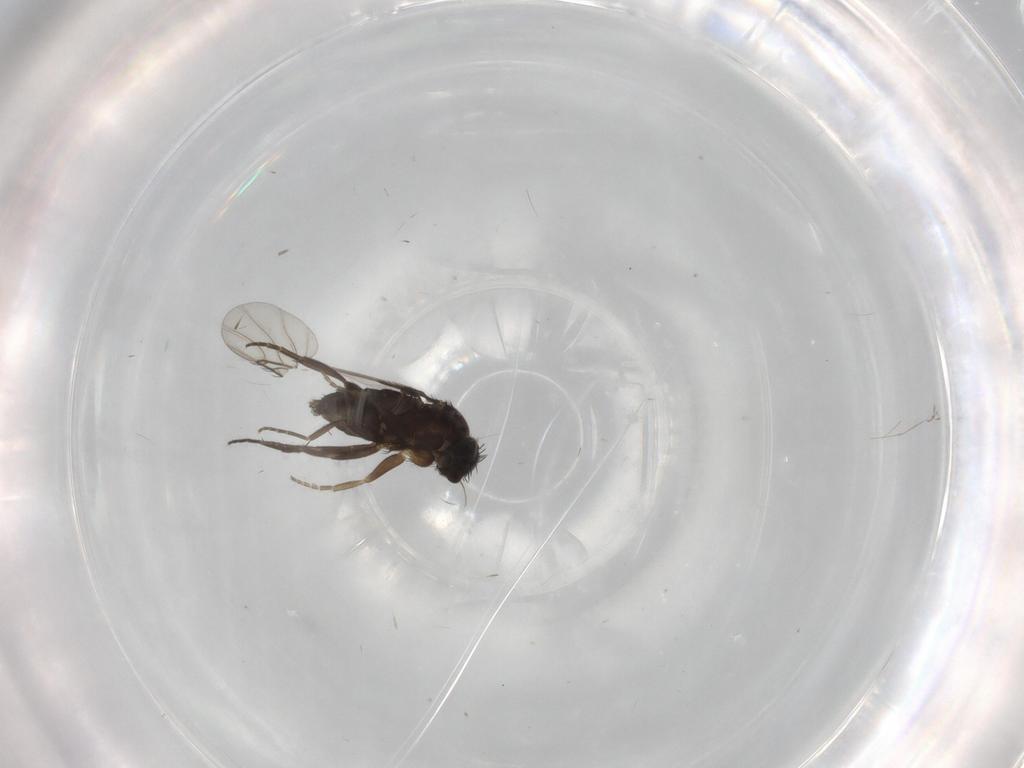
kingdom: Animalia
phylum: Arthropoda
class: Insecta
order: Diptera
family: Phoridae
